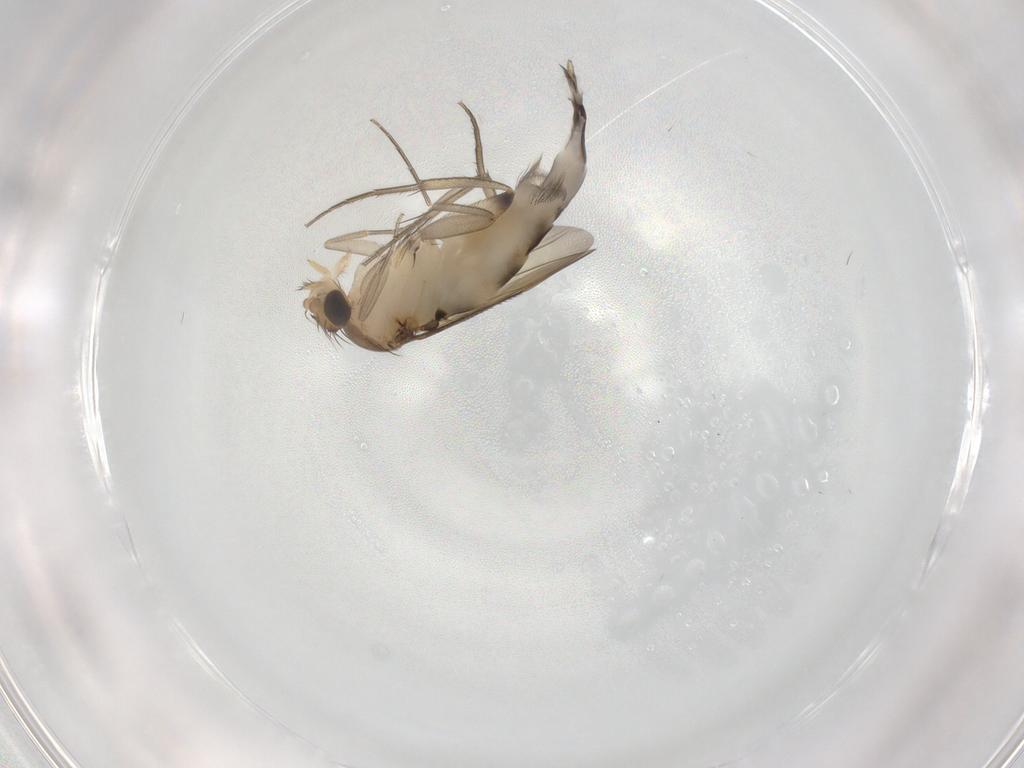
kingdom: Animalia
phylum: Arthropoda
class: Insecta
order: Diptera
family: Phoridae
